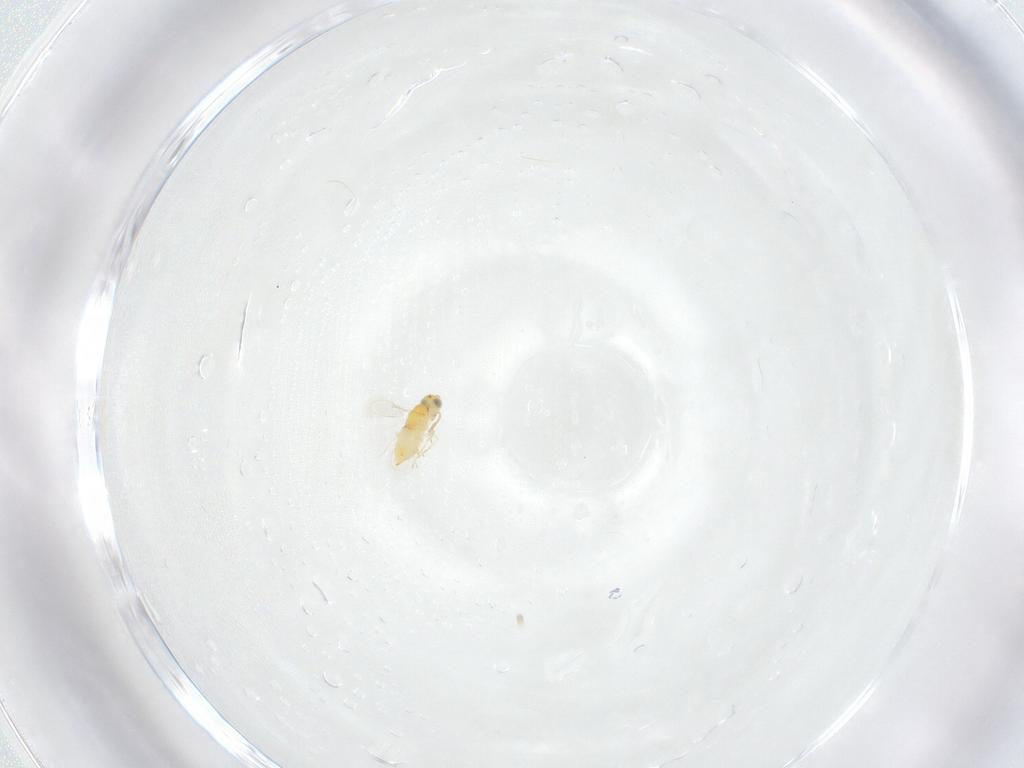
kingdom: Animalia
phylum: Arthropoda
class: Insecta
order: Hymenoptera
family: Aphelinidae
